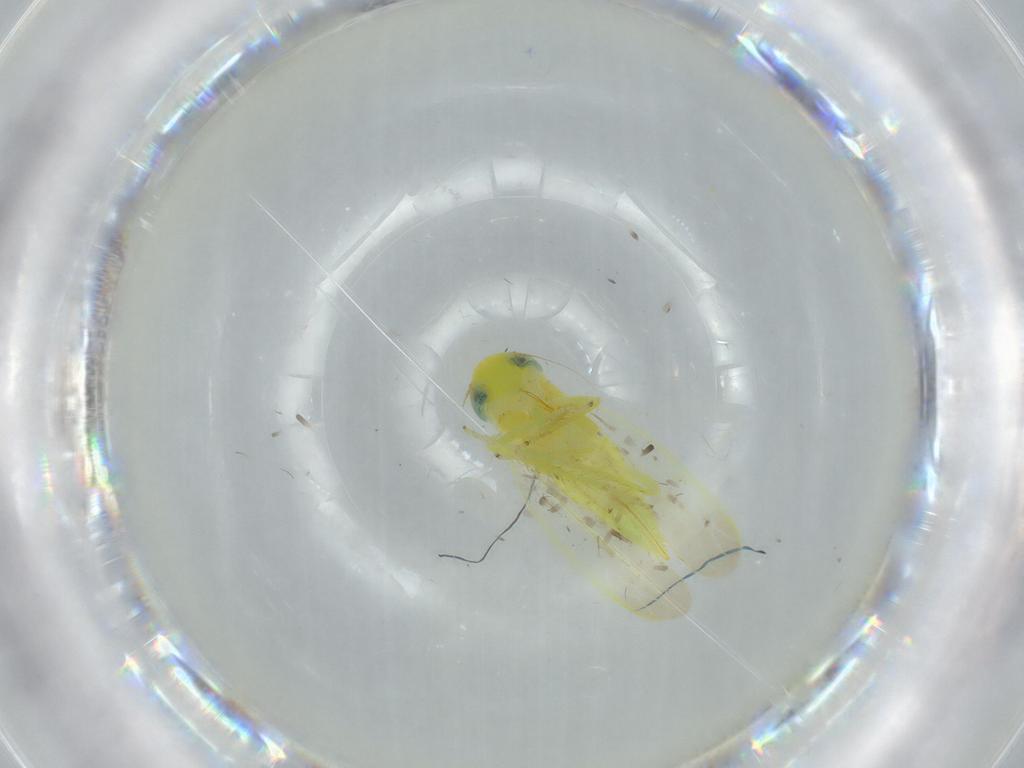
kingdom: Animalia
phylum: Arthropoda
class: Insecta
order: Hemiptera
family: Cicadellidae
